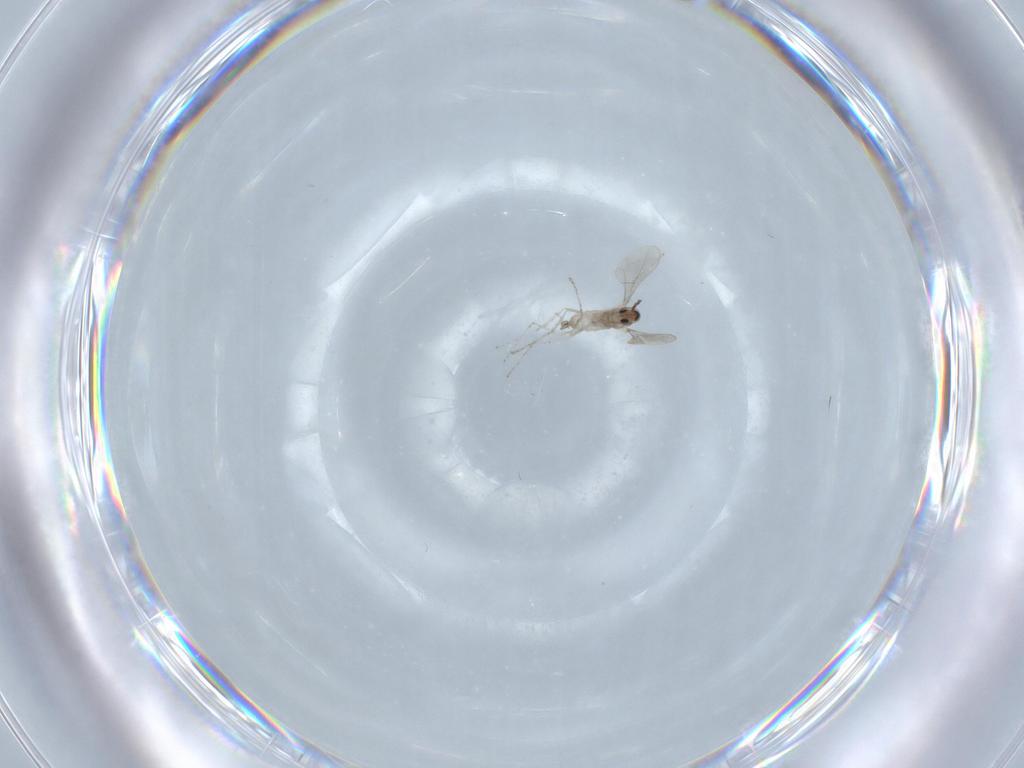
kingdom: Animalia
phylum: Arthropoda
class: Insecta
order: Diptera
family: Cecidomyiidae
